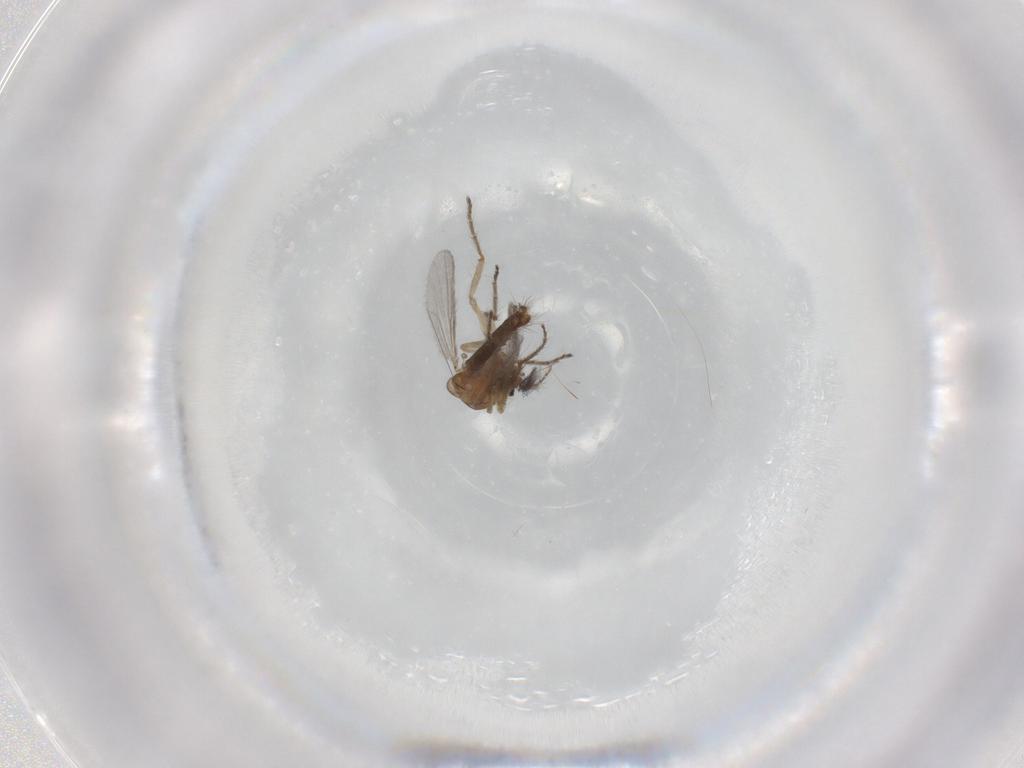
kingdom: Animalia
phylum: Arthropoda
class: Insecta
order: Diptera
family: Ceratopogonidae
